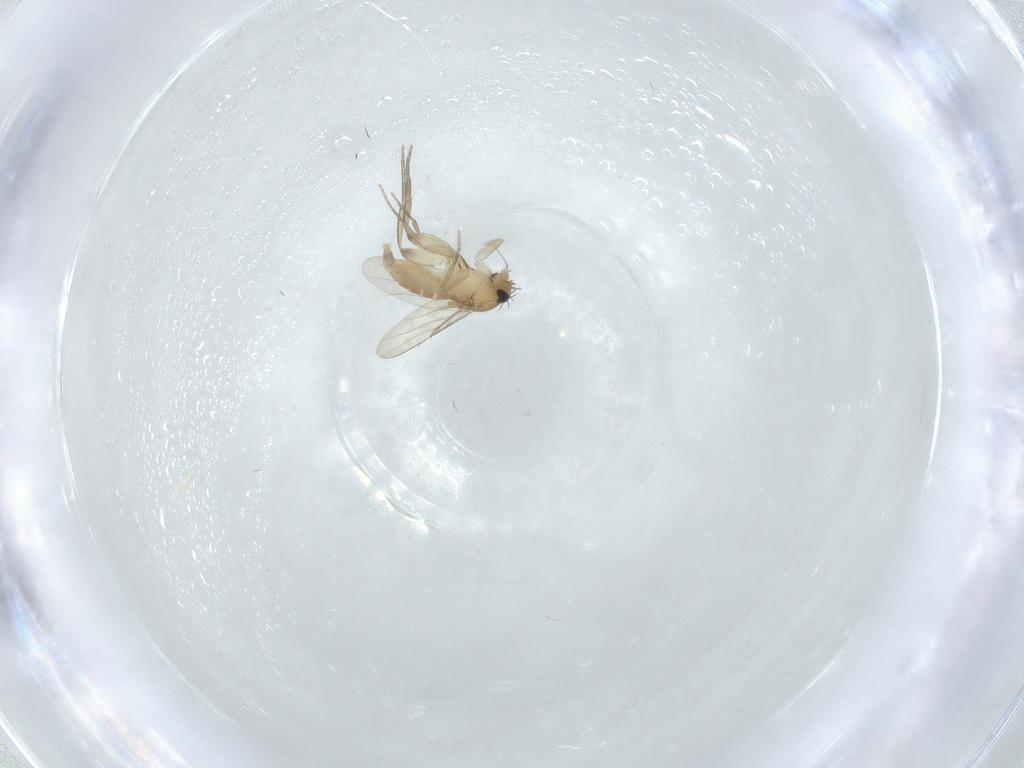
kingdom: Animalia
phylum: Arthropoda
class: Insecta
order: Diptera
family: Phoridae
